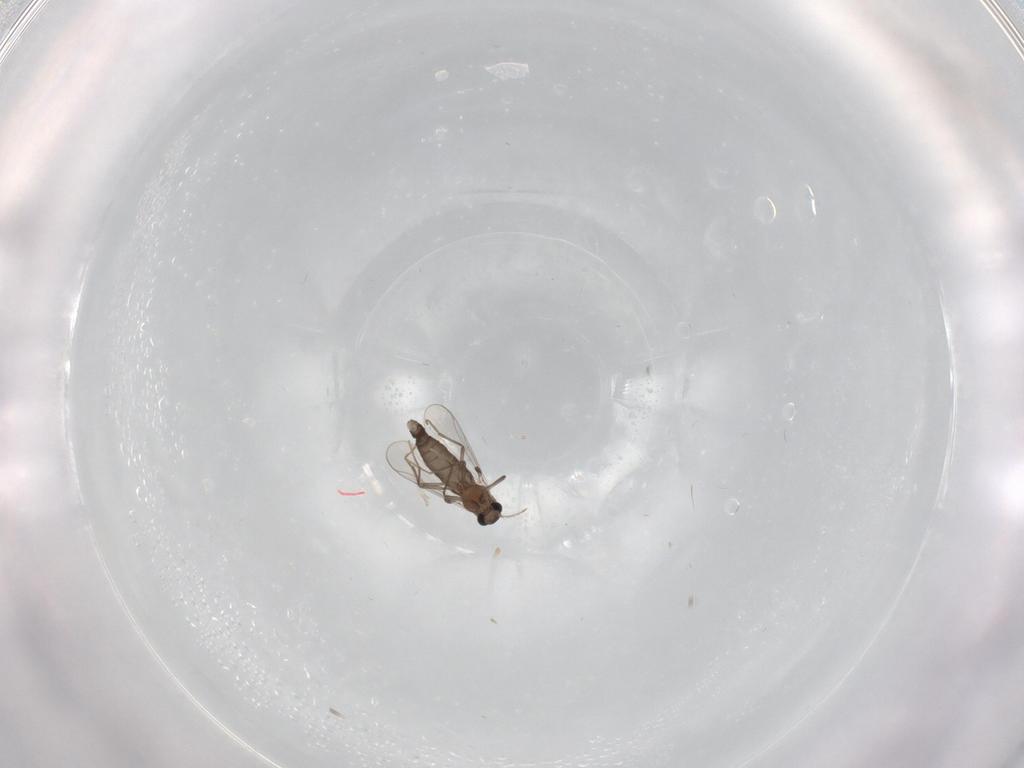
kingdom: Animalia
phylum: Arthropoda
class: Insecta
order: Diptera
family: Chironomidae
